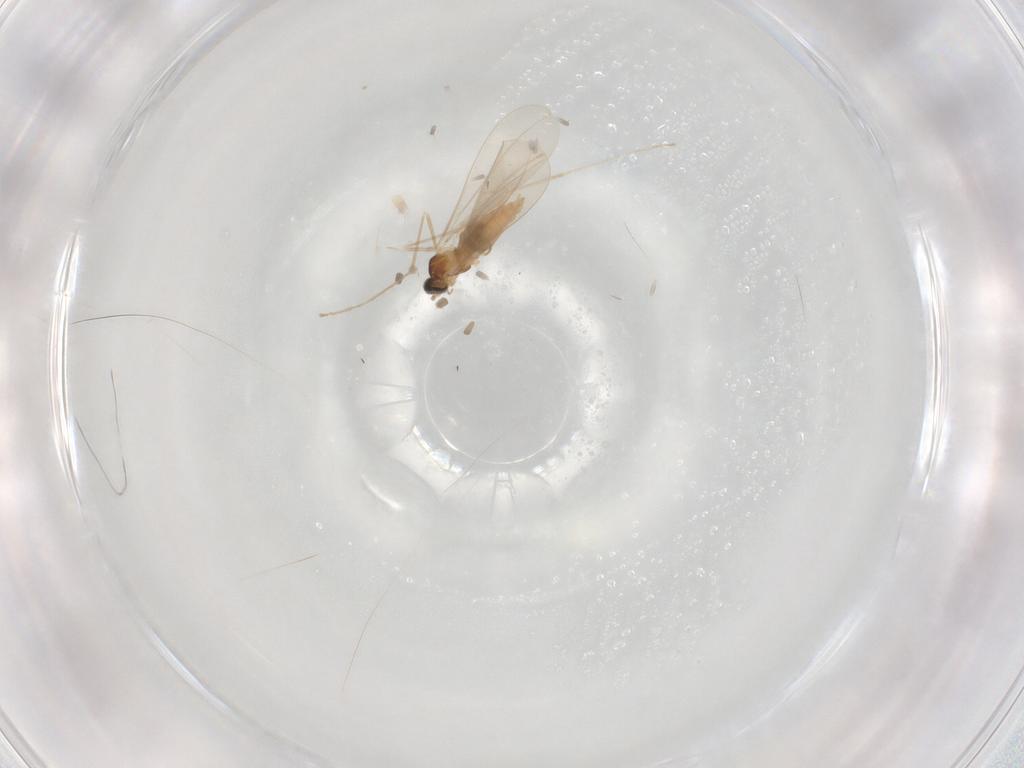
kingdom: Animalia
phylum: Arthropoda
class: Insecta
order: Diptera
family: Cecidomyiidae
